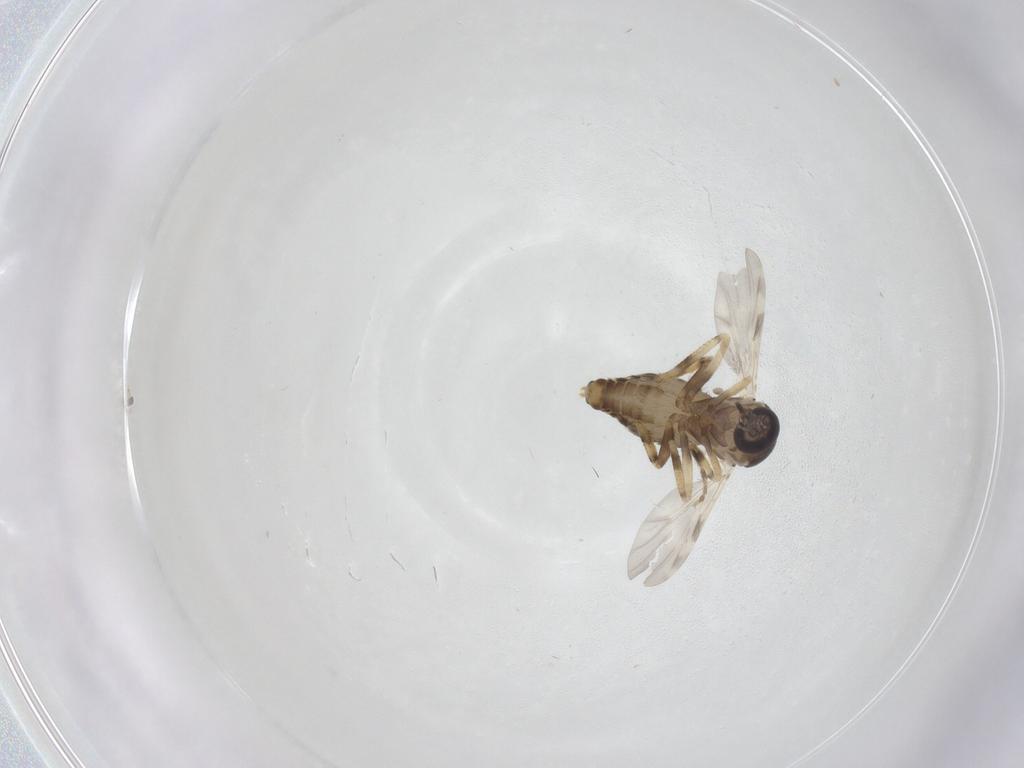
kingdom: Animalia
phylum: Arthropoda
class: Insecta
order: Diptera
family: Ceratopogonidae
